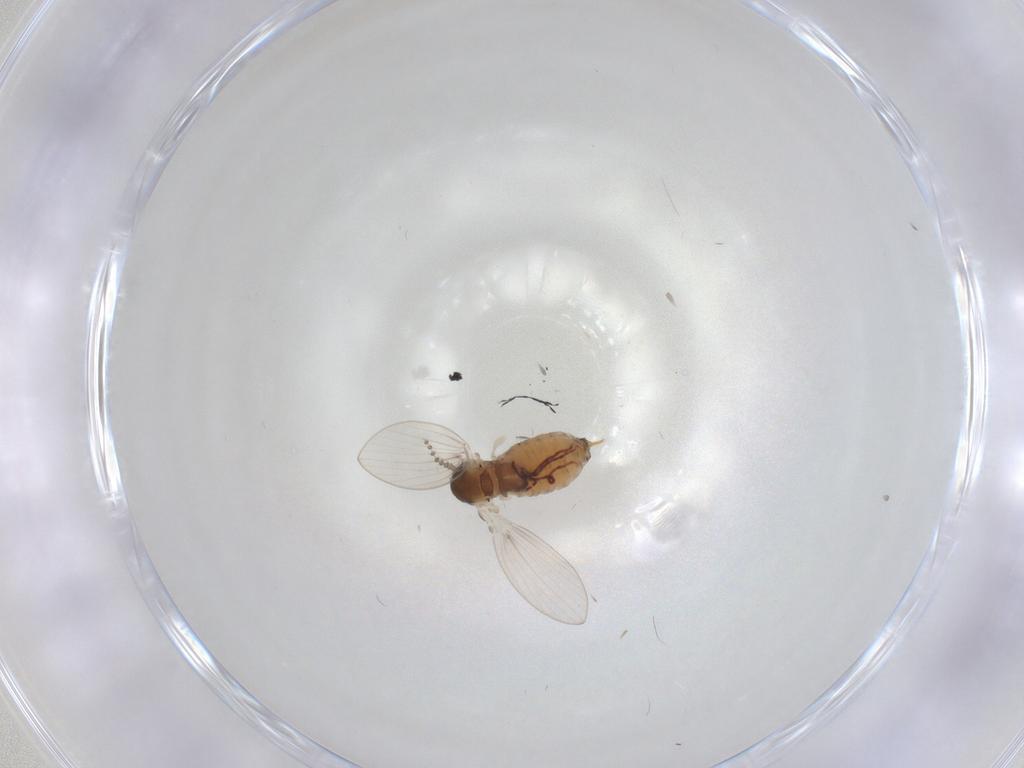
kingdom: Animalia
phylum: Arthropoda
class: Insecta
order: Diptera
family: Psychodidae
